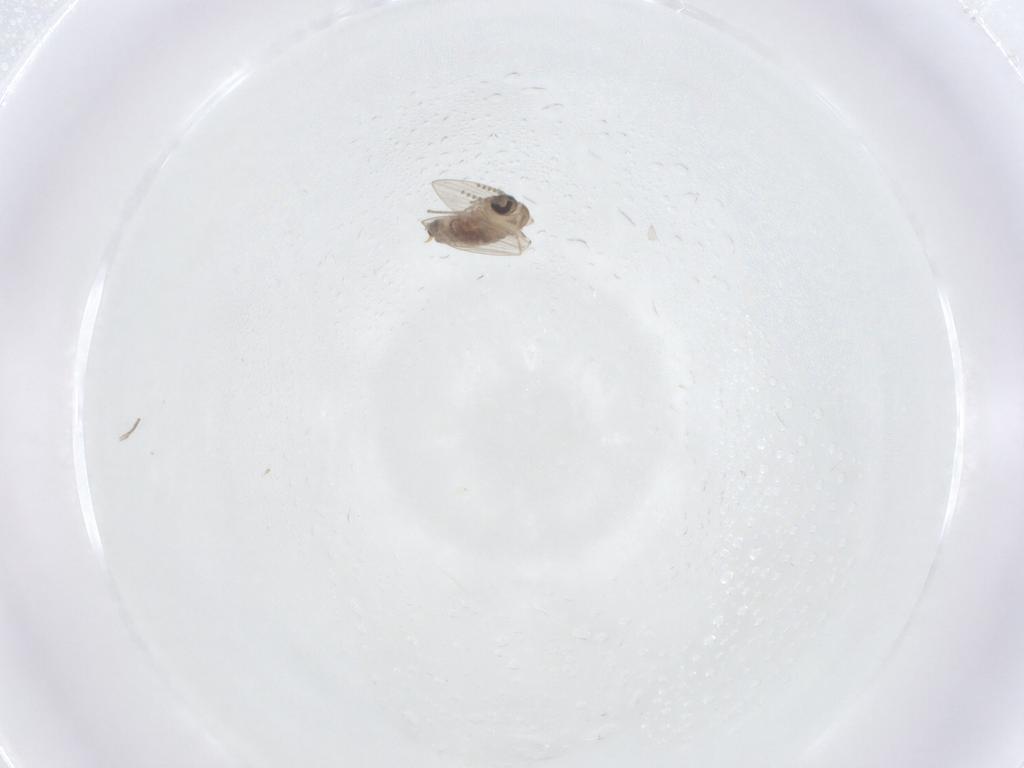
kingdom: Animalia
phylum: Arthropoda
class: Insecta
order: Diptera
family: Psychodidae
